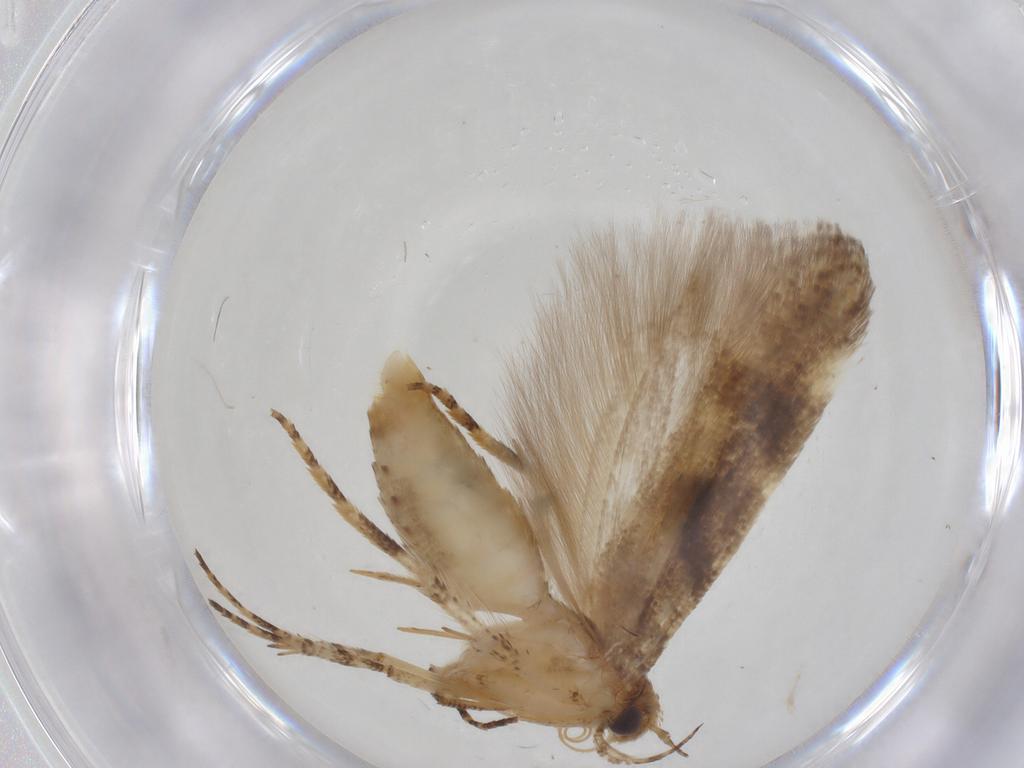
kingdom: Animalia
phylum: Arthropoda
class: Insecta
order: Lepidoptera
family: Gelechiidae
